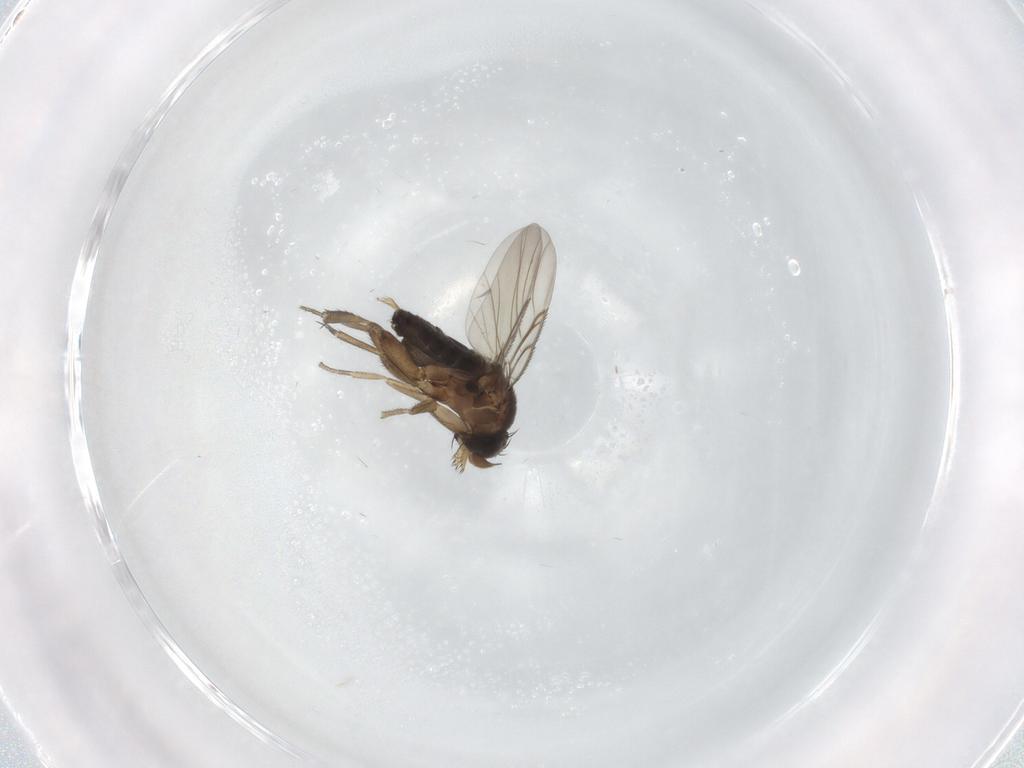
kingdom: Animalia
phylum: Arthropoda
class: Insecta
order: Diptera
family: Phoridae
